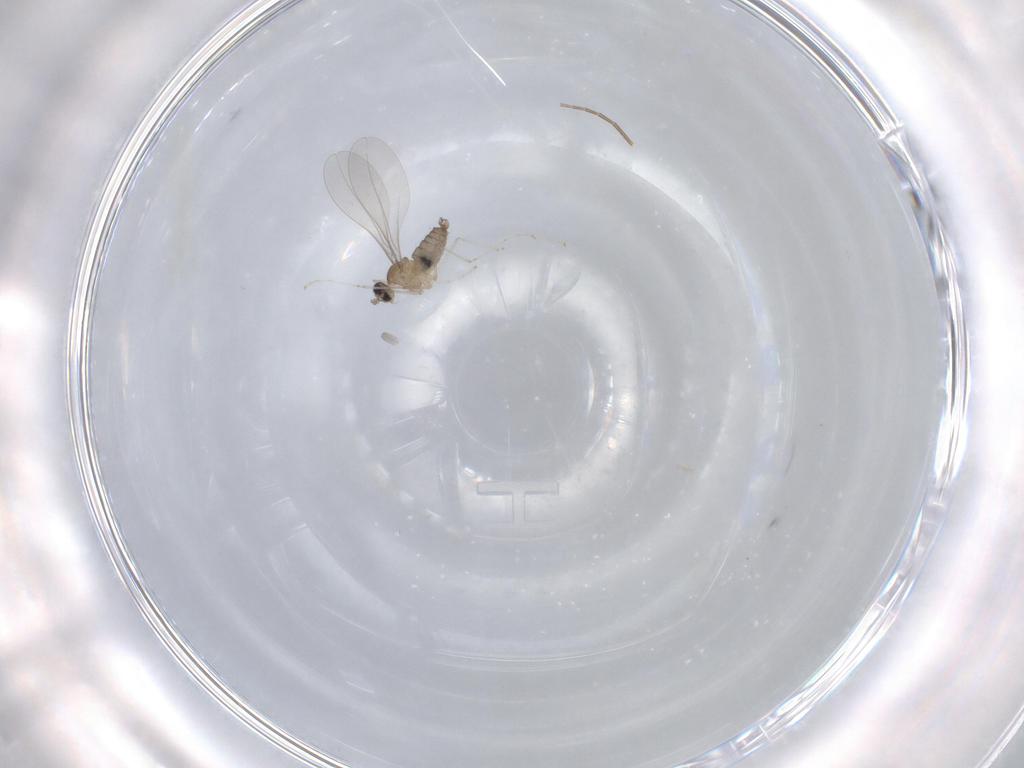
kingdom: Animalia
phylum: Arthropoda
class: Insecta
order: Diptera
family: Cecidomyiidae
